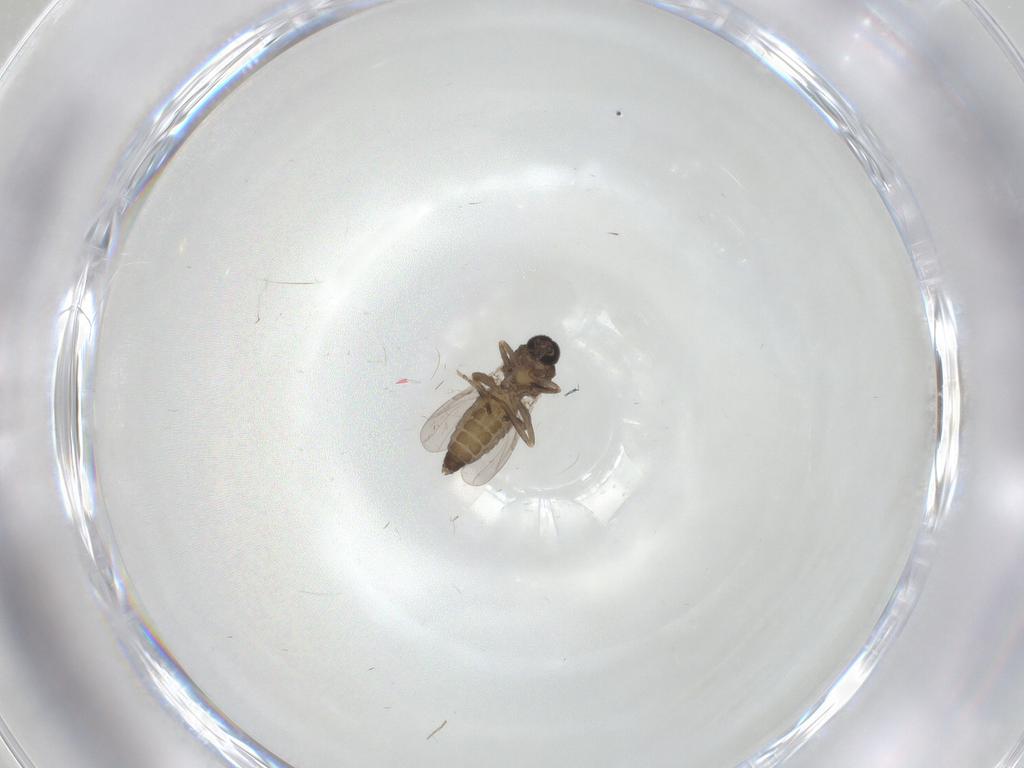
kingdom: Animalia
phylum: Arthropoda
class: Insecta
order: Diptera
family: Ceratopogonidae
